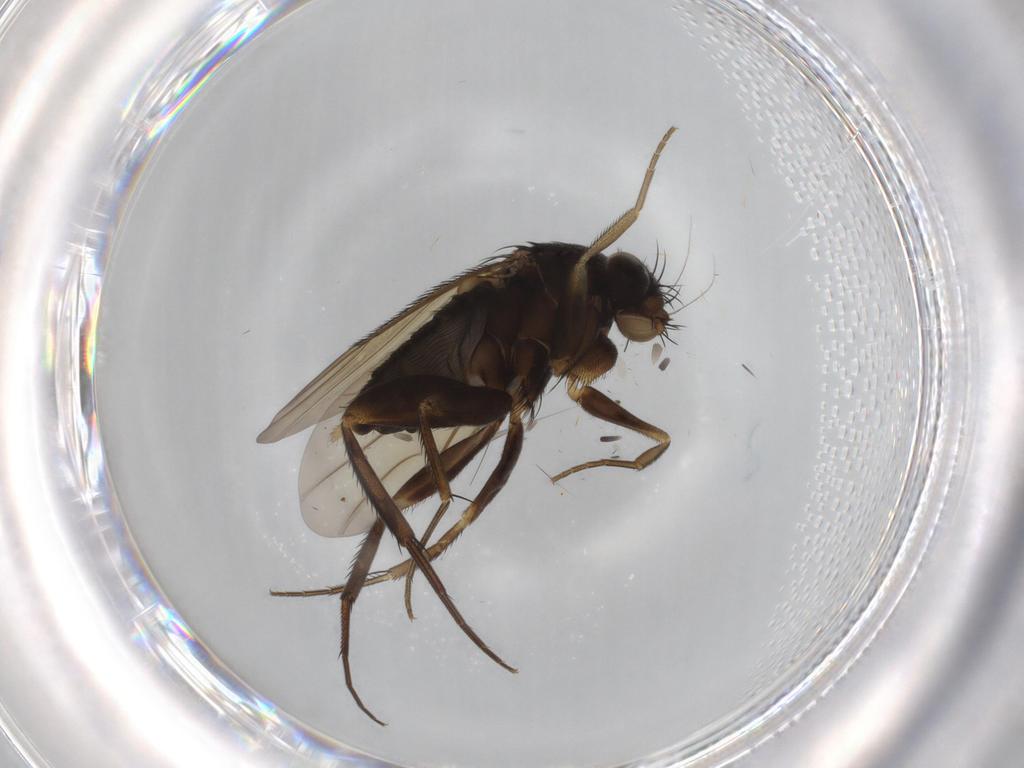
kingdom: Animalia
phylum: Arthropoda
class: Insecta
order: Diptera
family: Phoridae
